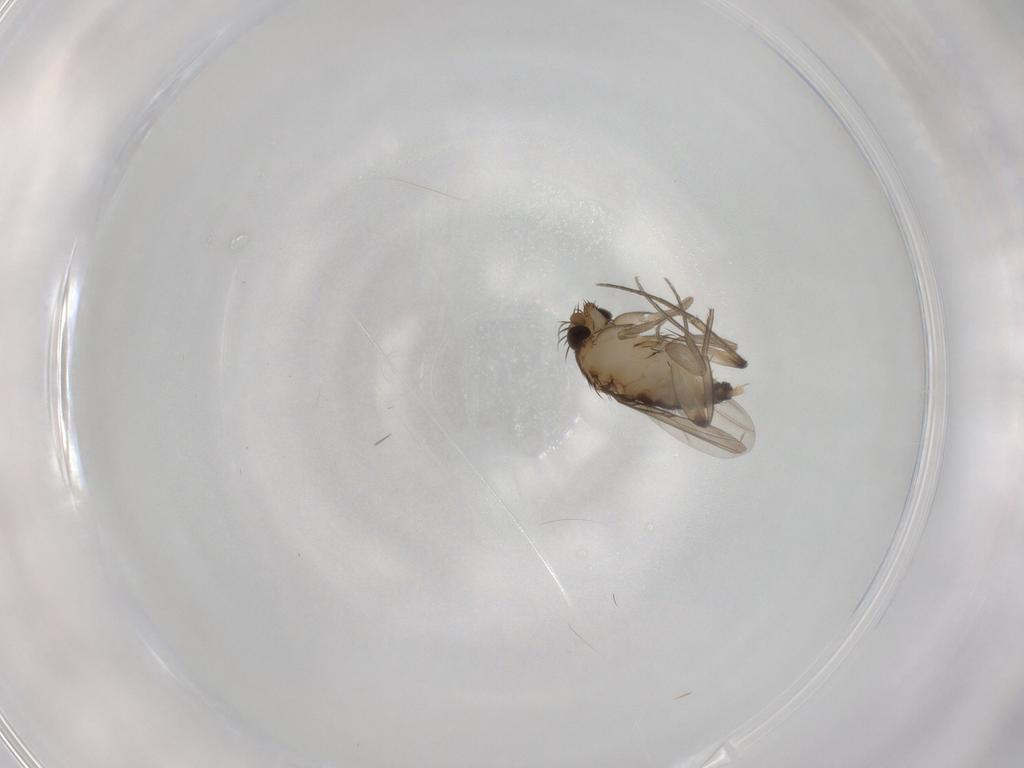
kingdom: Animalia
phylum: Arthropoda
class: Insecta
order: Diptera
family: Phoridae
